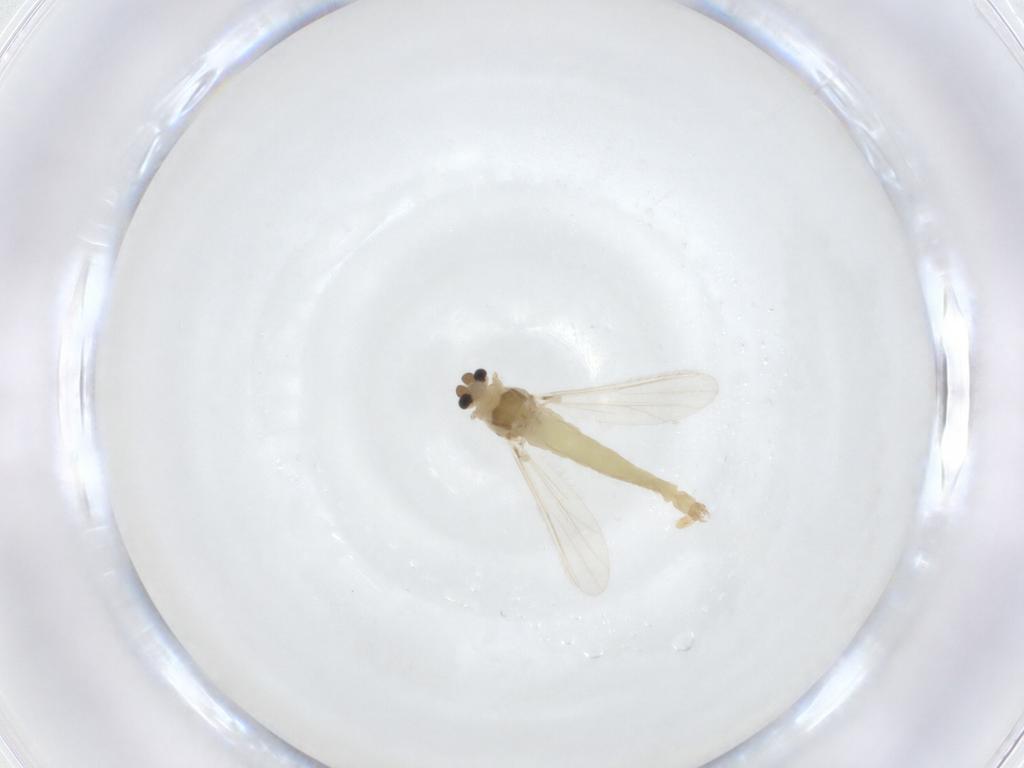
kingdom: Animalia
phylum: Arthropoda
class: Insecta
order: Diptera
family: Chironomidae
